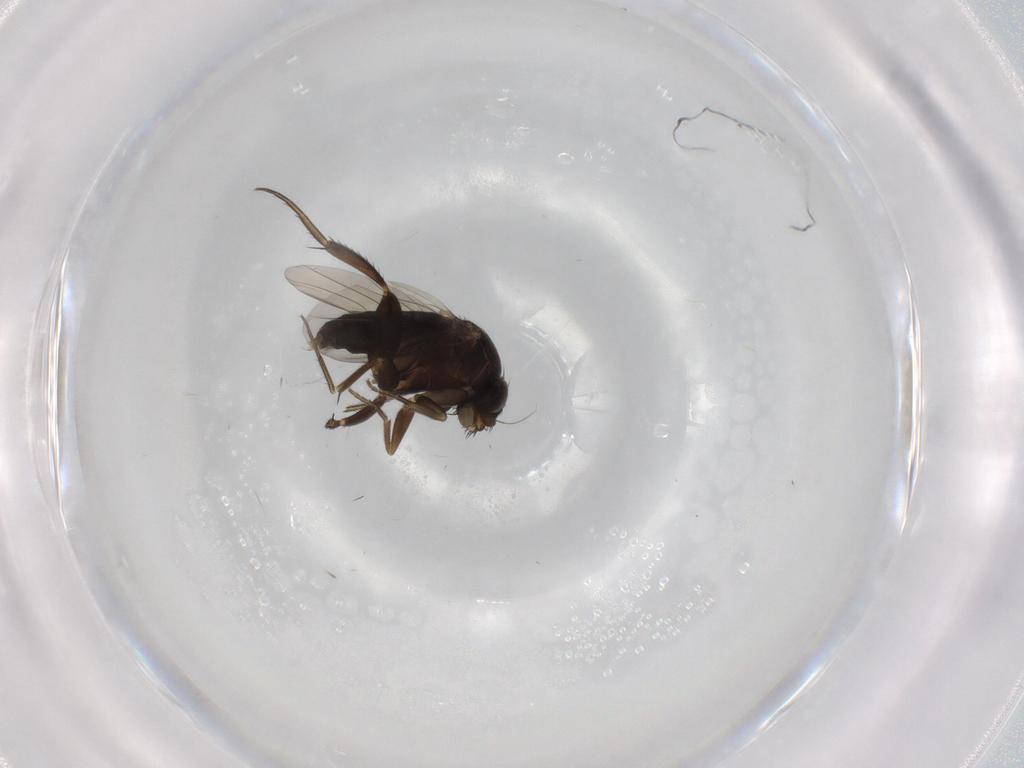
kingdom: Animalia
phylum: Arthropoda
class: Insecta
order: Diptera
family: Phoridae
